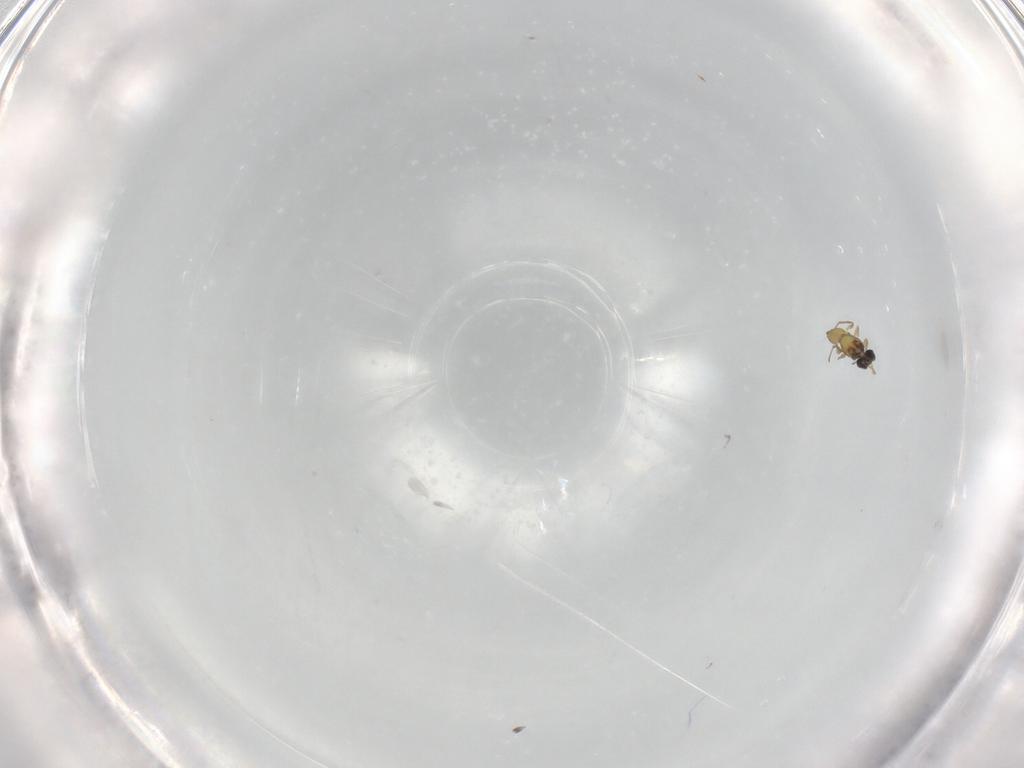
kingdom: Animalia
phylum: Arthropoda
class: Insecta
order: Hymenoptera
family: Mymaridae
